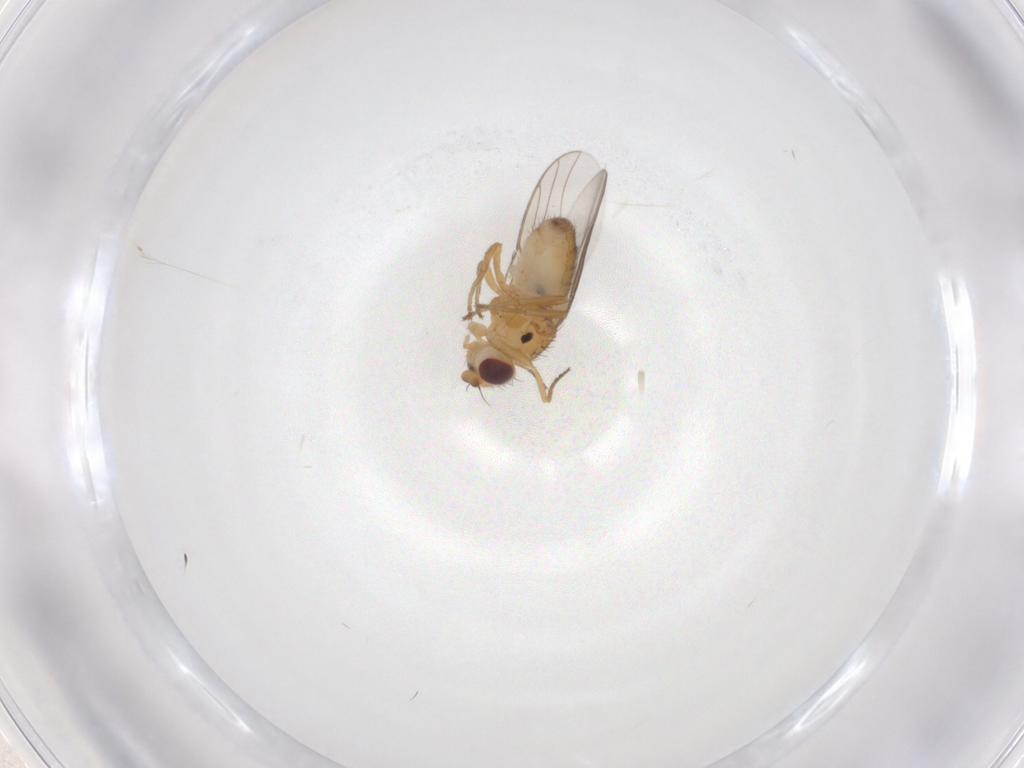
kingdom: Animalia
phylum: Arthropoda
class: Insecta
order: Diptera
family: Chloropidae
